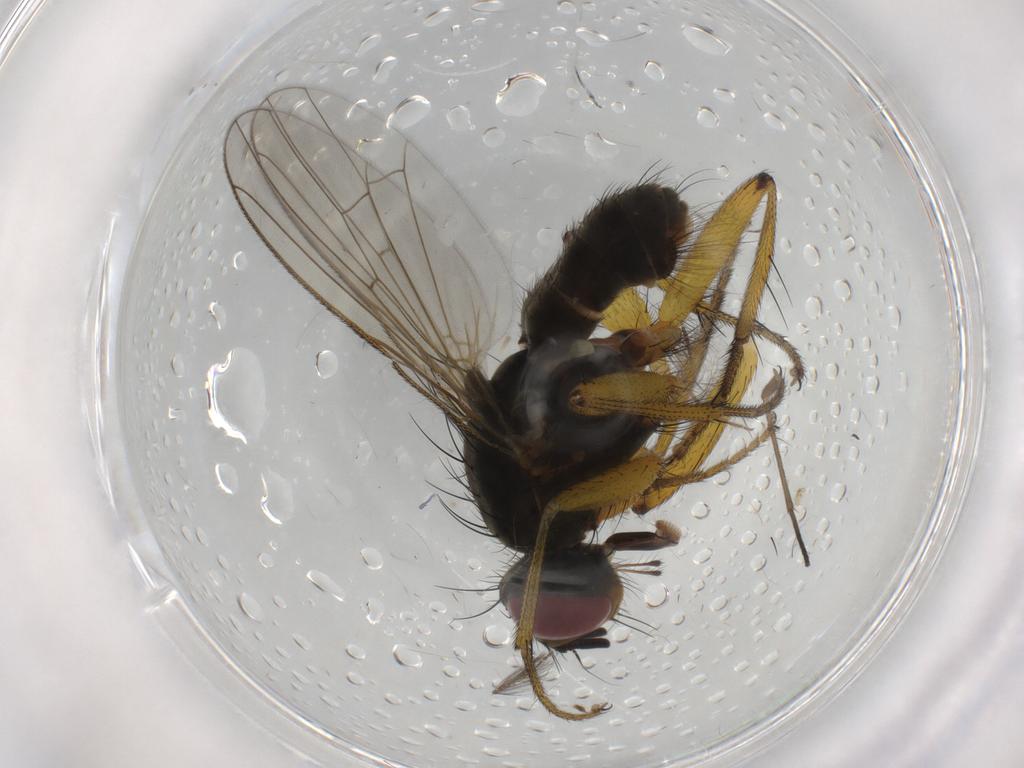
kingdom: Animalia
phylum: Arthropoda
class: Insecta
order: Diptera
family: Muscidae
